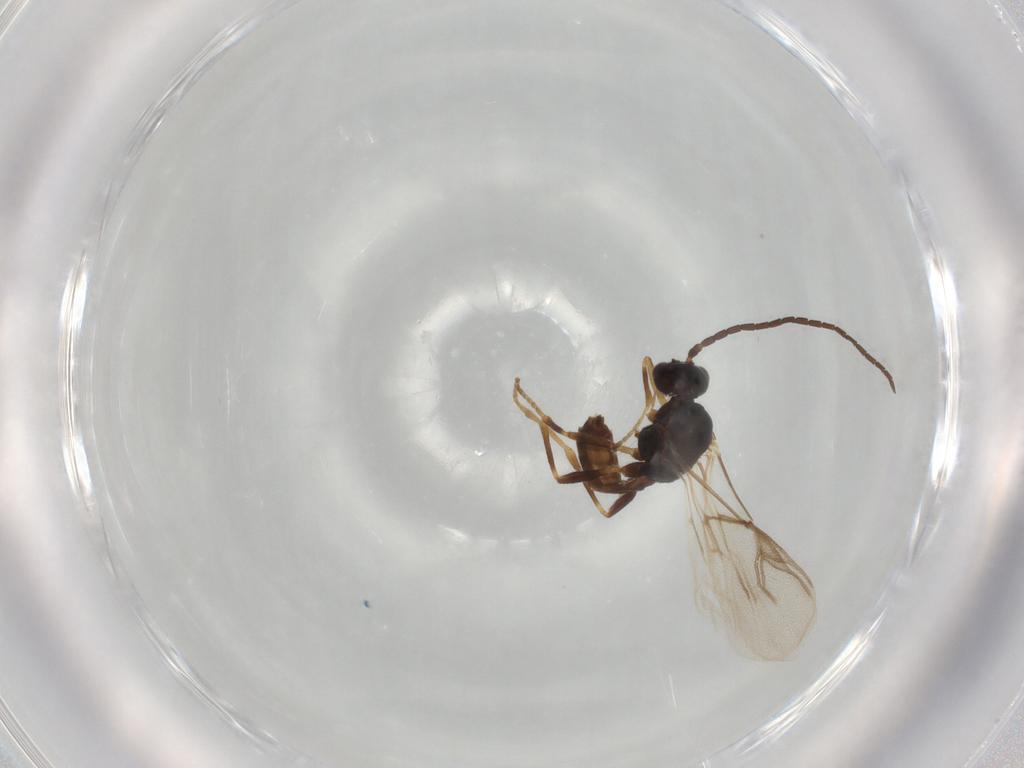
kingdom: Animalia
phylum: Arthropoda
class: Insecta
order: Hymenoptera
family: Braconidae
